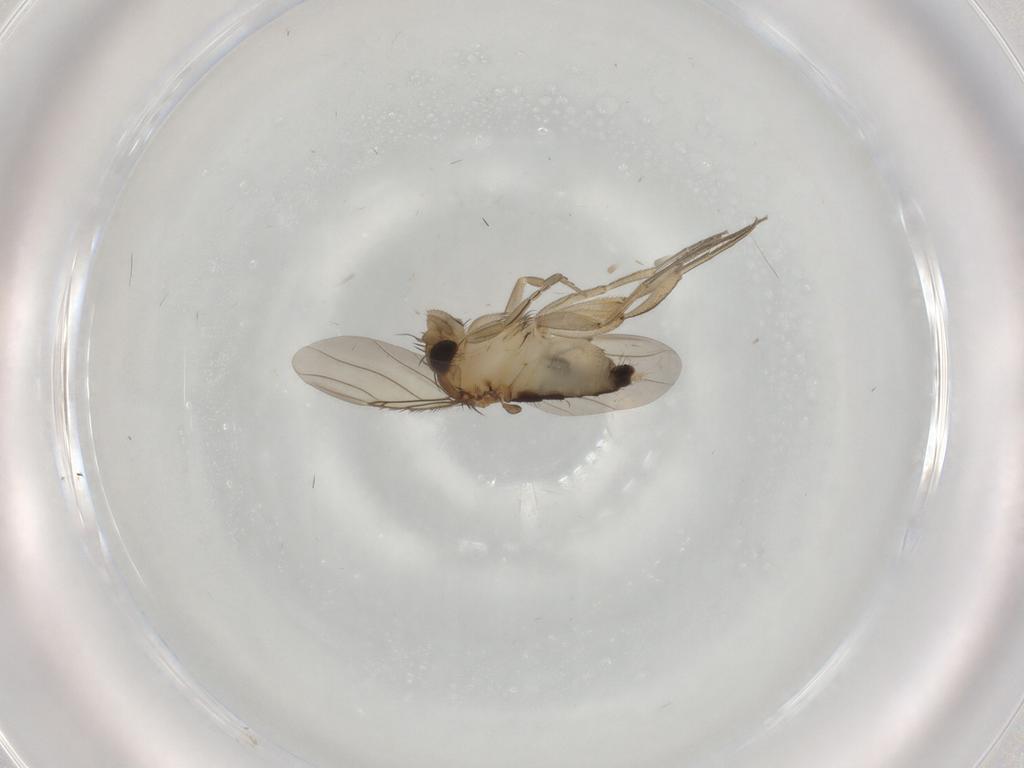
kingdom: Animalia
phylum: Arthropoda
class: Insecta
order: Diptera
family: Phoridae
